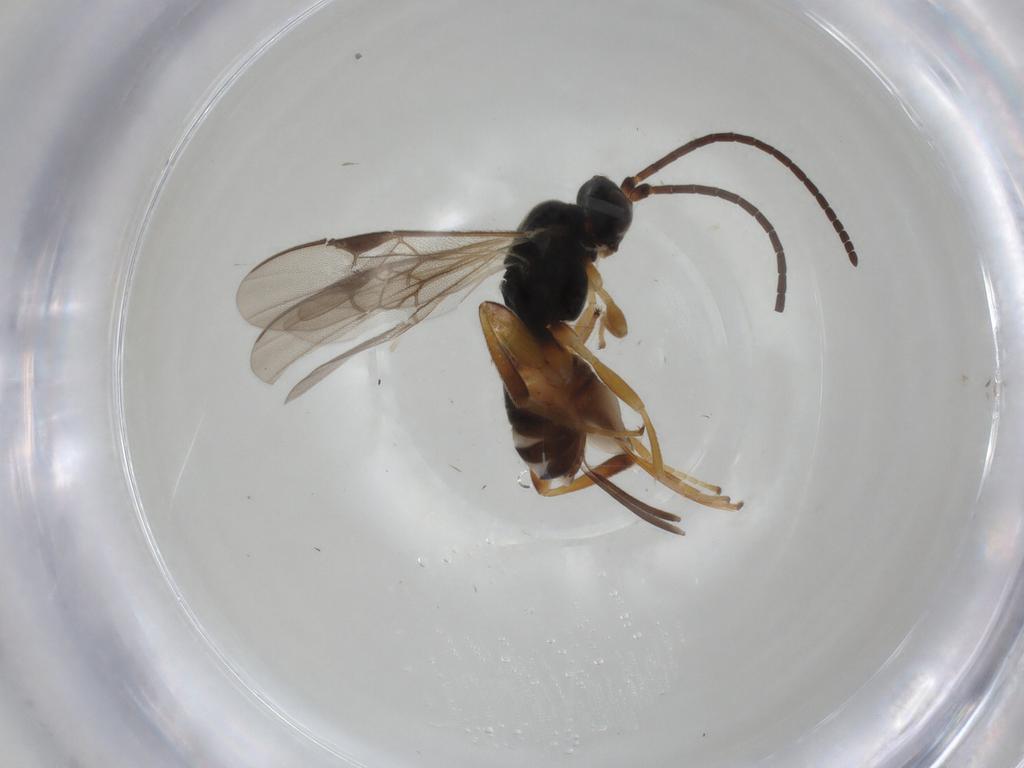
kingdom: Animalia
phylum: Arthropoda
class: Insecta
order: Hymenoptera
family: Braconidae
